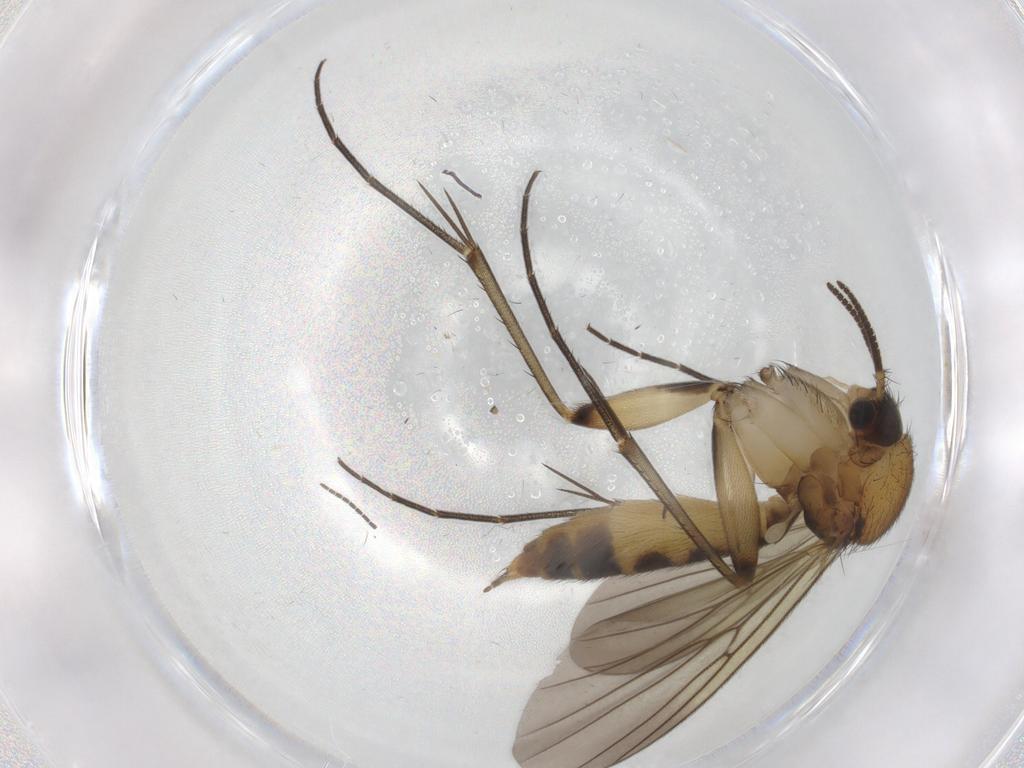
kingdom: Animalia
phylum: Arthropoda
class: Insecta
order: Diptera
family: Mycetophilidae
